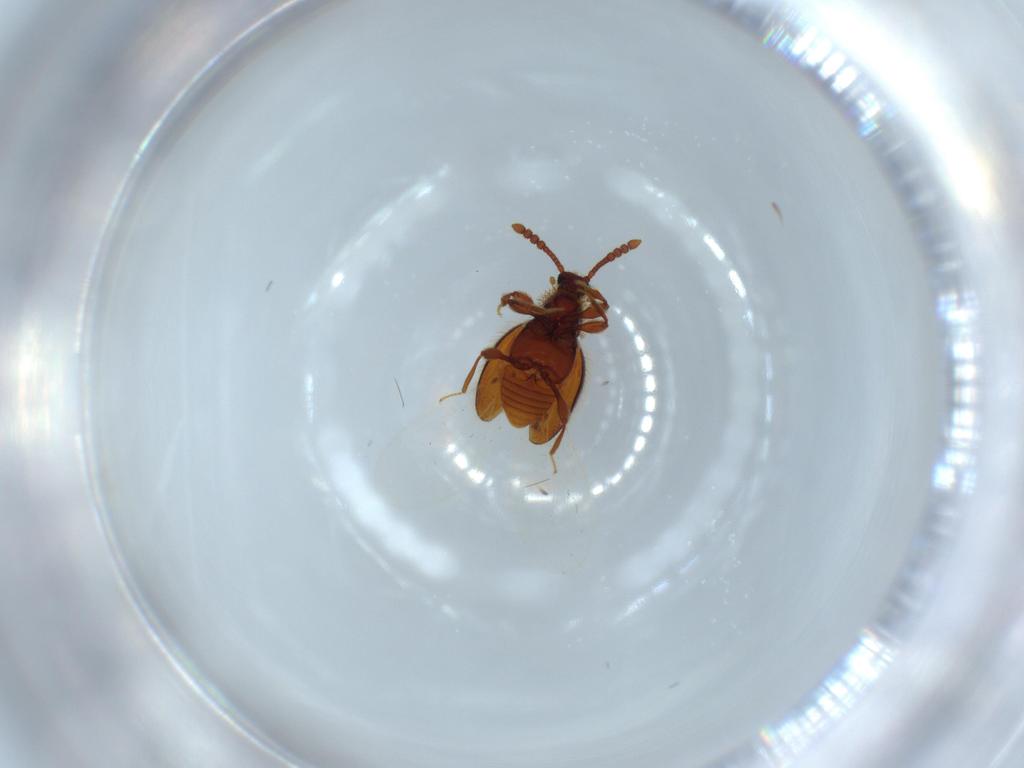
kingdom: Animalia
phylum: Arthropoda
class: Insecta
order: Coleoptera
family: Staphylinidae
